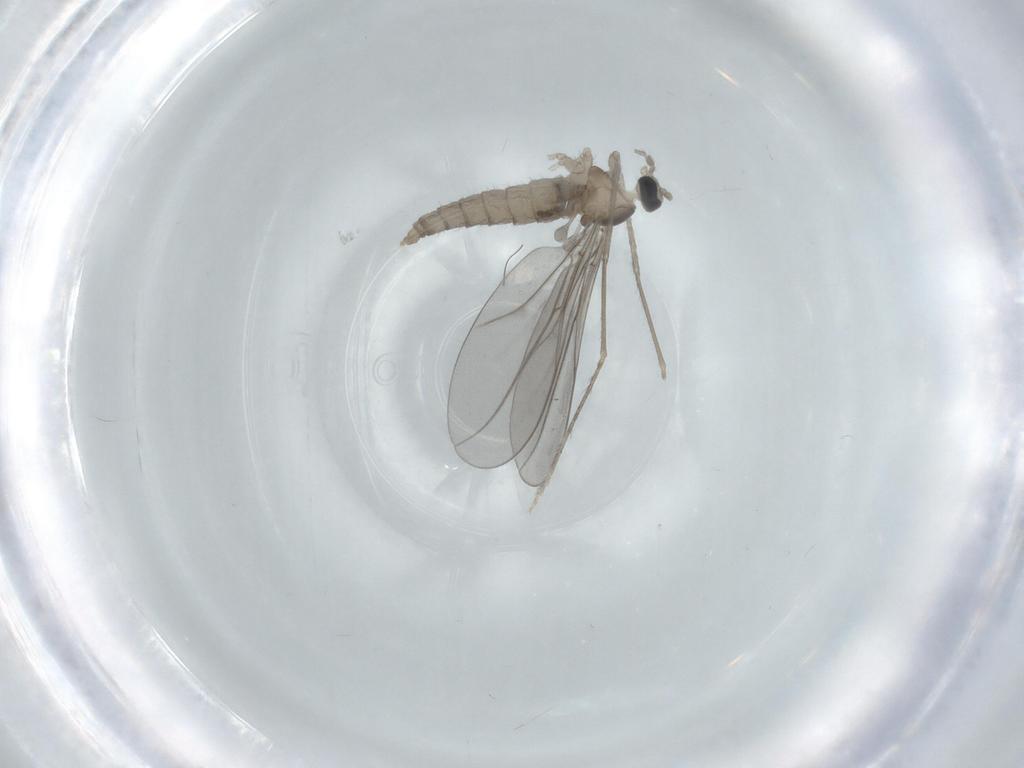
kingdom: Animalia
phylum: Arthropoda
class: Insecta
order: Diptera
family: Cecidomyiidae
